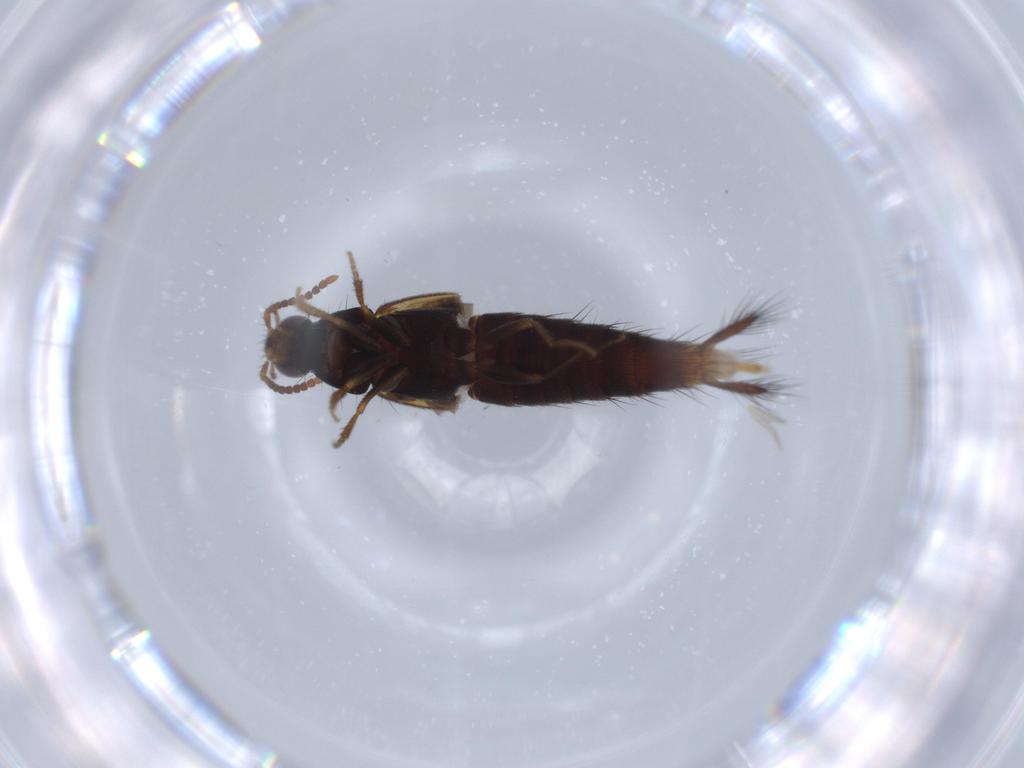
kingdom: Animalia
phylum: Arthropoda
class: Insecta
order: Coleoptera
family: Staphylinidae
